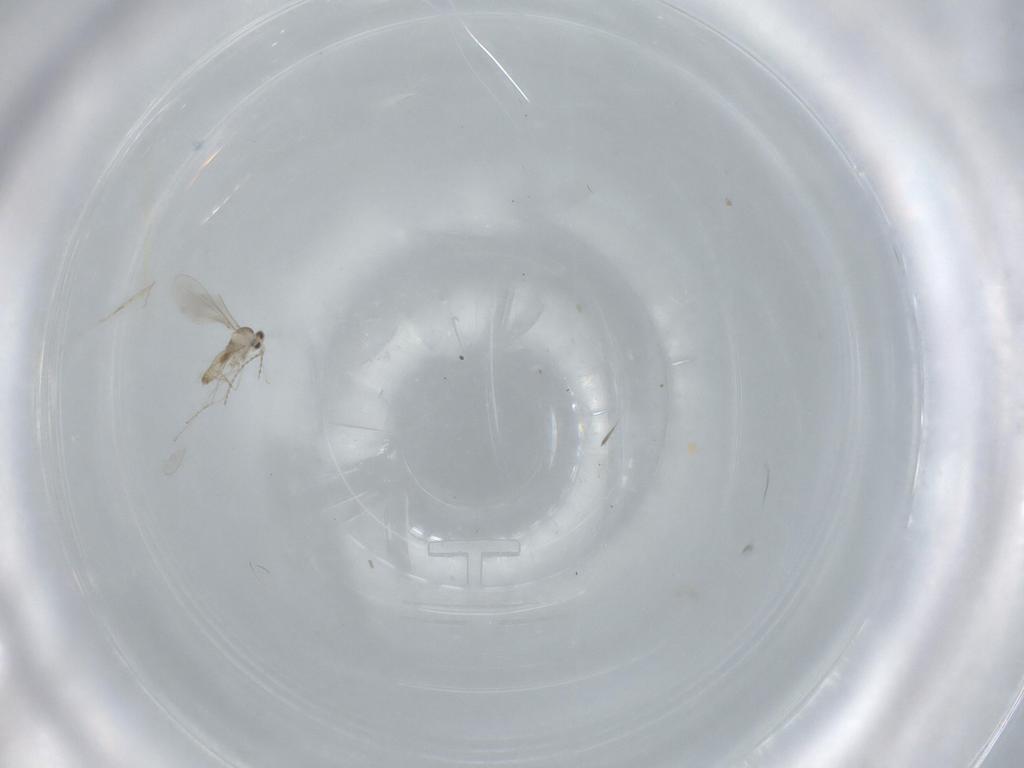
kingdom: Animalia
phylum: Arthropoda
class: Insecta
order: Diptera
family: Cecidomyiidae
